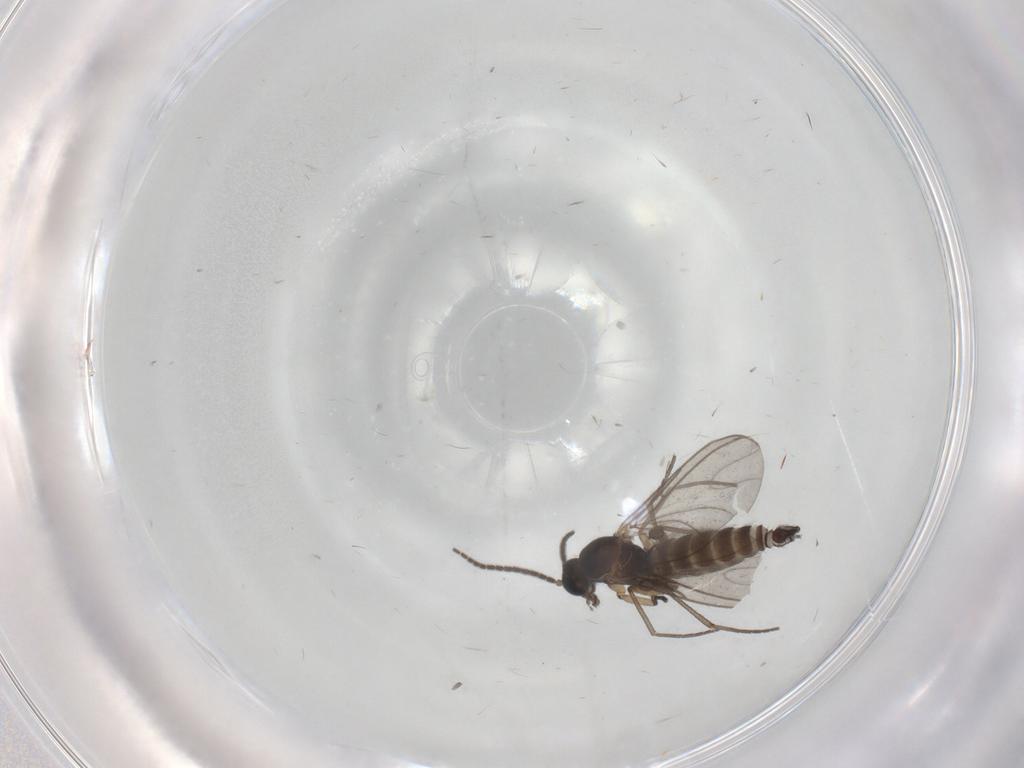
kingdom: Animalia
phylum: Arthropoda
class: Insecta
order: Diptera
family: Sciaridae
